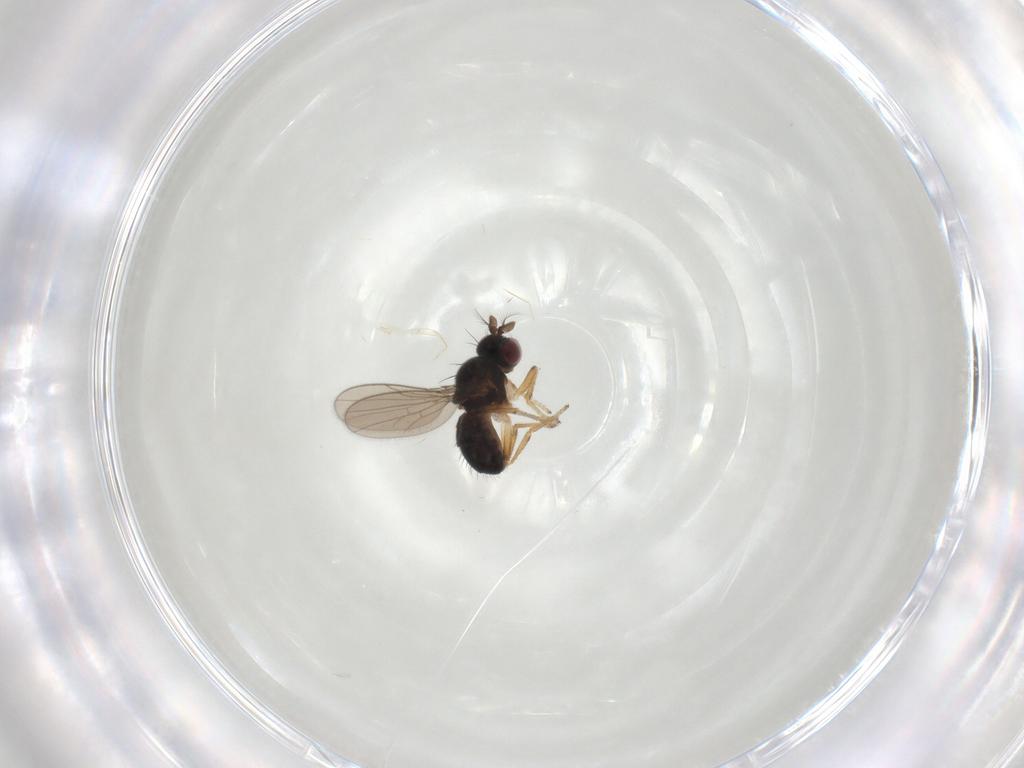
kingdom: Animalia
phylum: Arthropoda
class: Insecta
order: Diptera
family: Ephydridae
